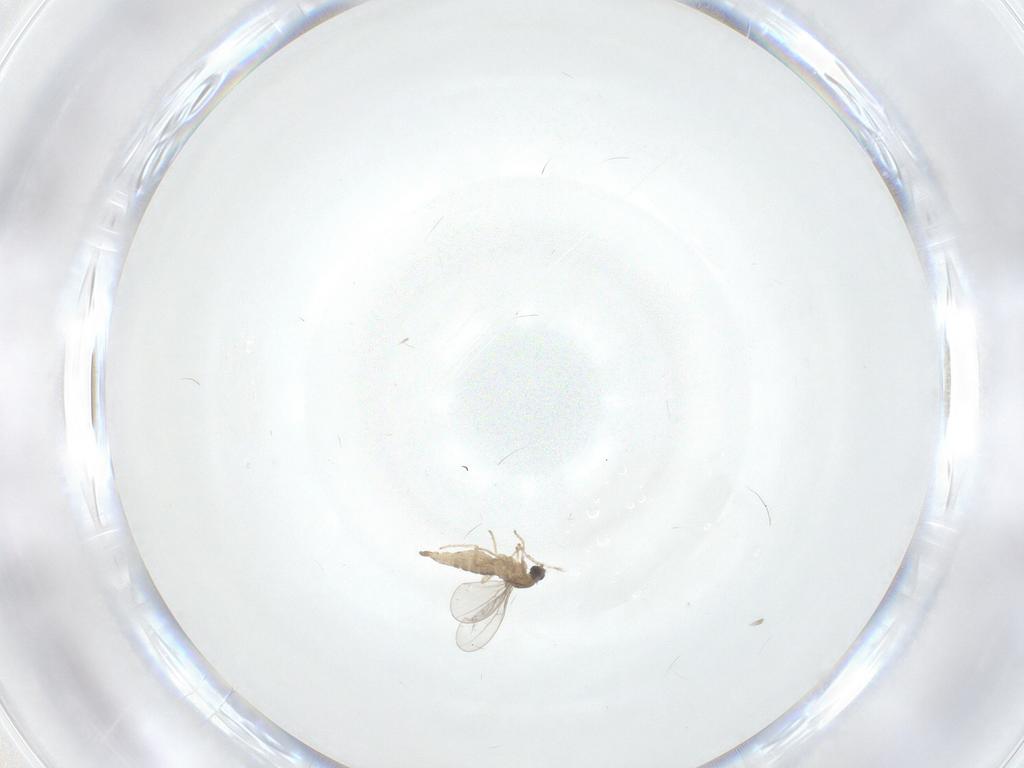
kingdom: Animalia
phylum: Arthropoda
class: Insecta
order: Diptera
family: Cecidomyiidae
